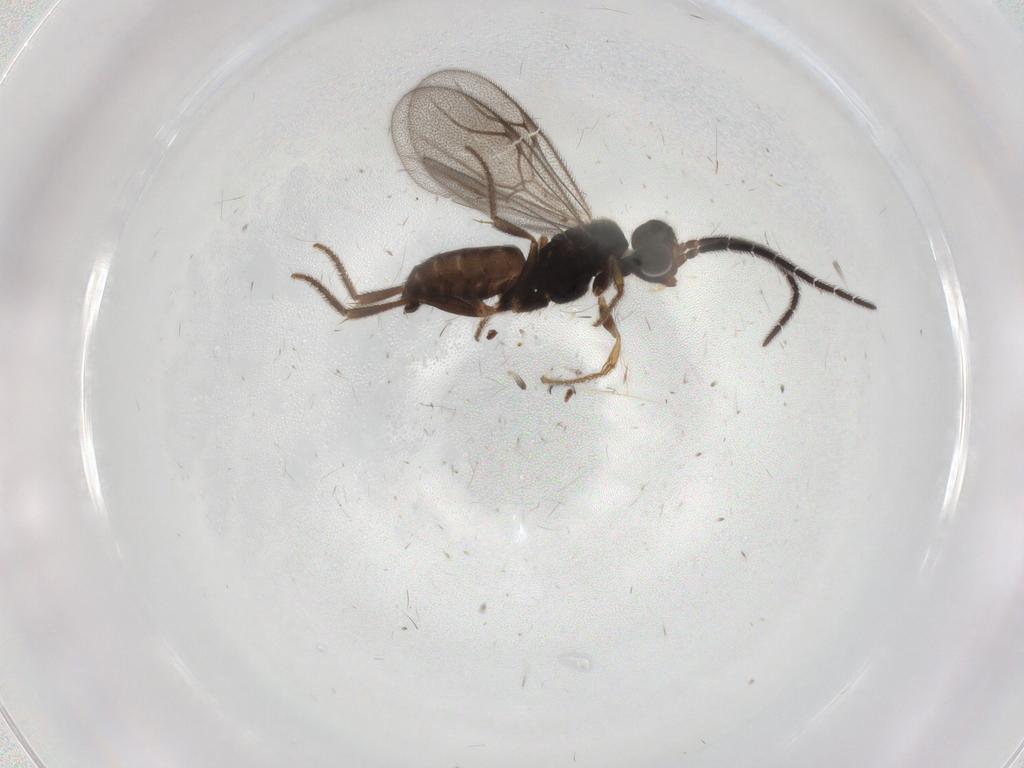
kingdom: Animalia
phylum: Arthropoda
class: Insecta
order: Hymenoptera
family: Dryinidae
